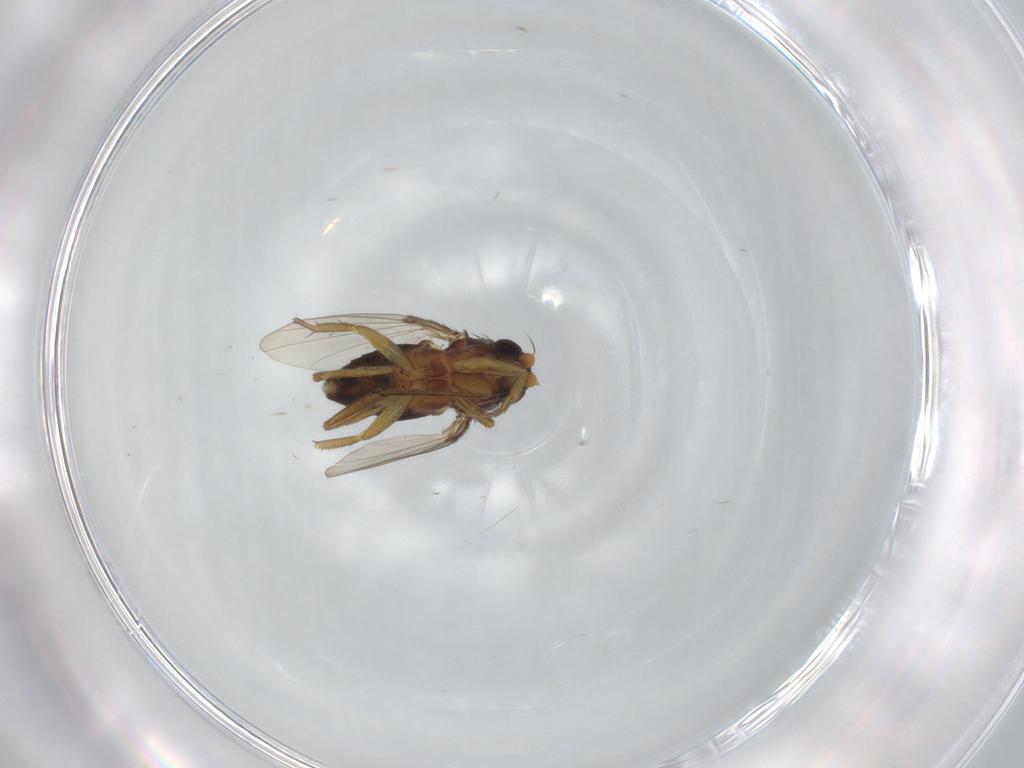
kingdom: Animalia
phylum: Arthropoda
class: Insecta
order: Diptera
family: Phoridae
